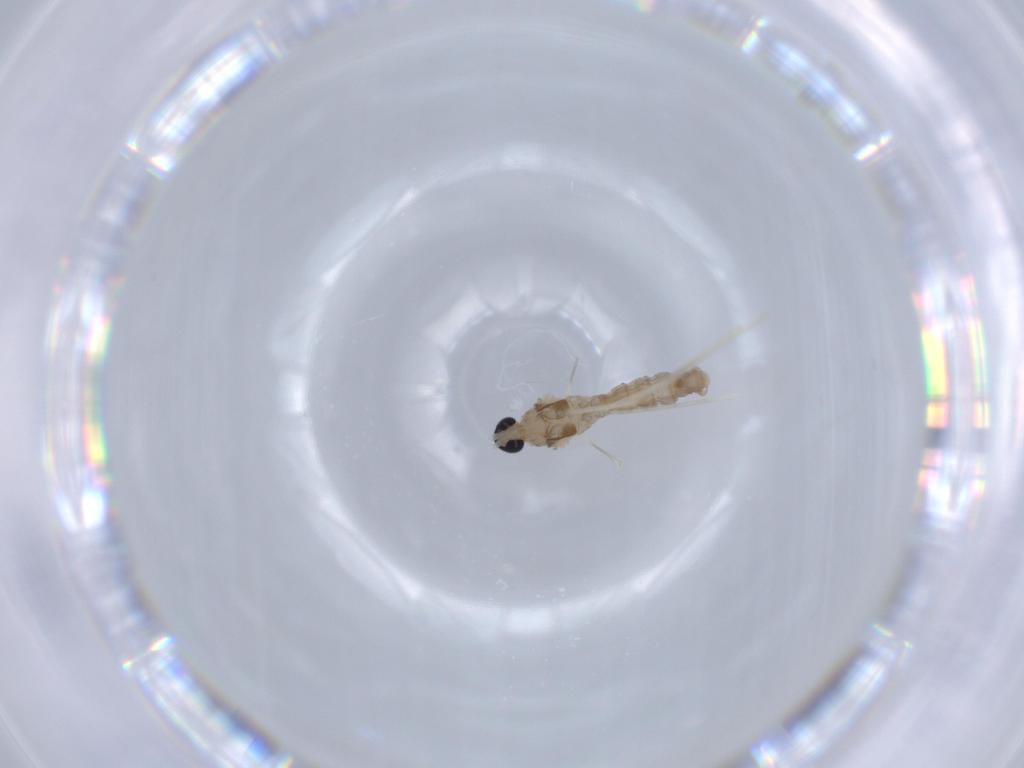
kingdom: Animalia
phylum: Arthropoda
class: Insecta
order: Diptera
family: Cecidomyiidae
